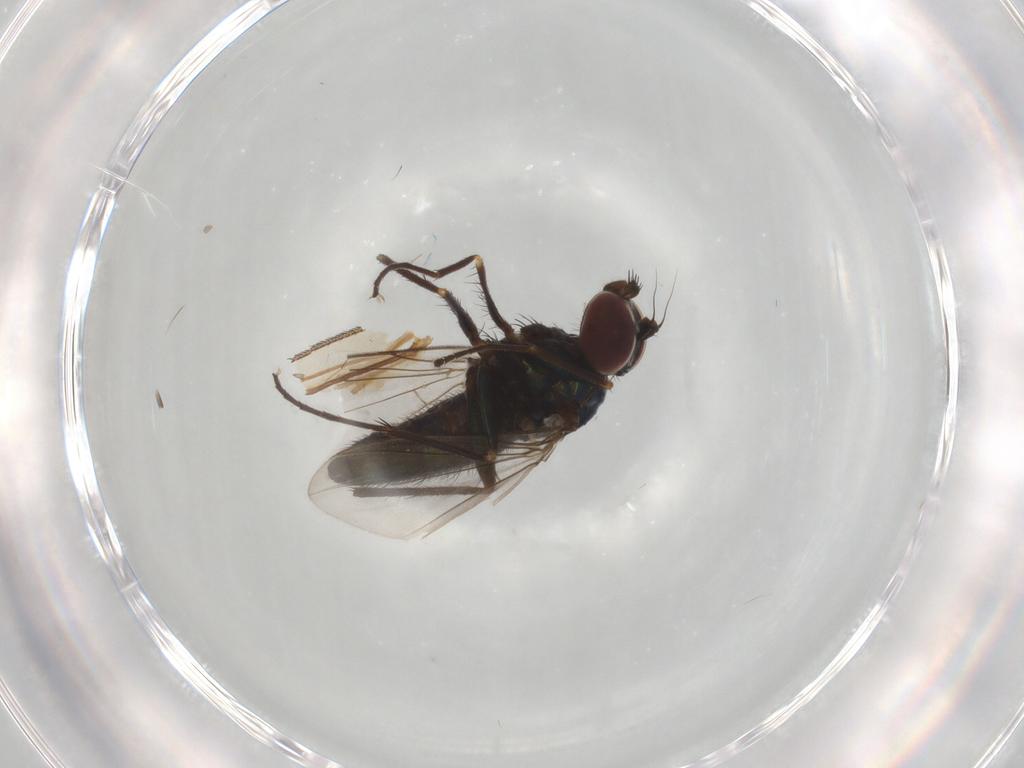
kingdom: Animalia
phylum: Arthropoda
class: Insecta
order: Diptera
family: Dolichopodidae
